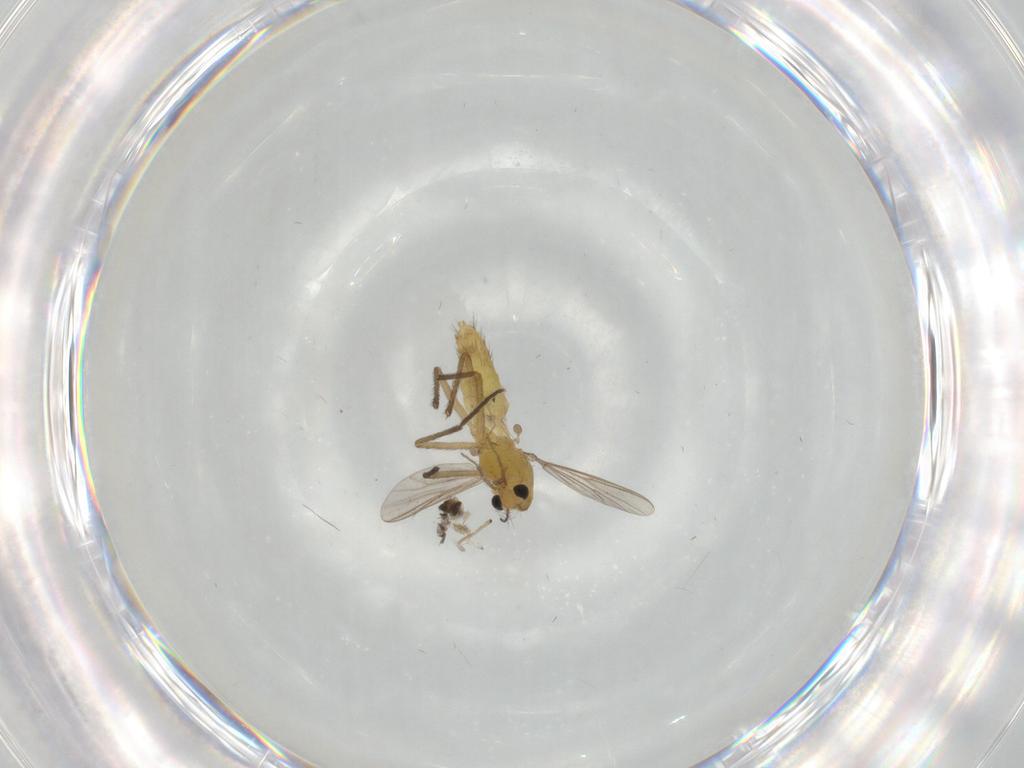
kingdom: Animalia
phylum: Arthropoda
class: Insecta
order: Diptera
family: Chironomidae
